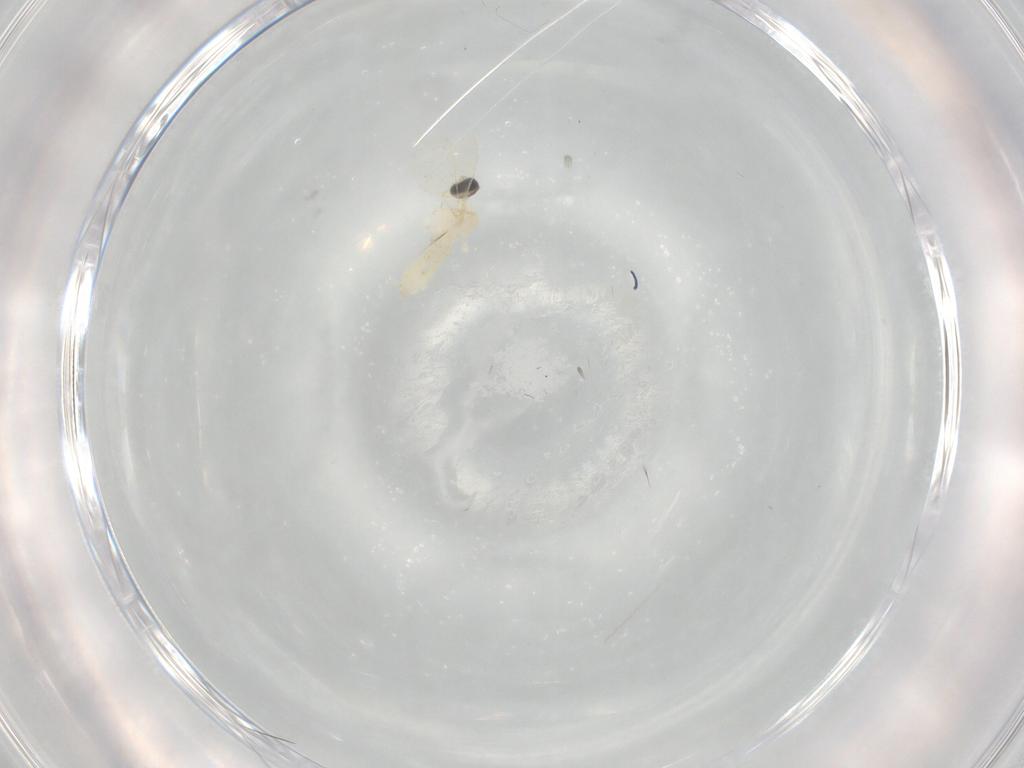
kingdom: Animalia
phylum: Arthropoda
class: Insecta
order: Diptera
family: Cecidomyiidae
